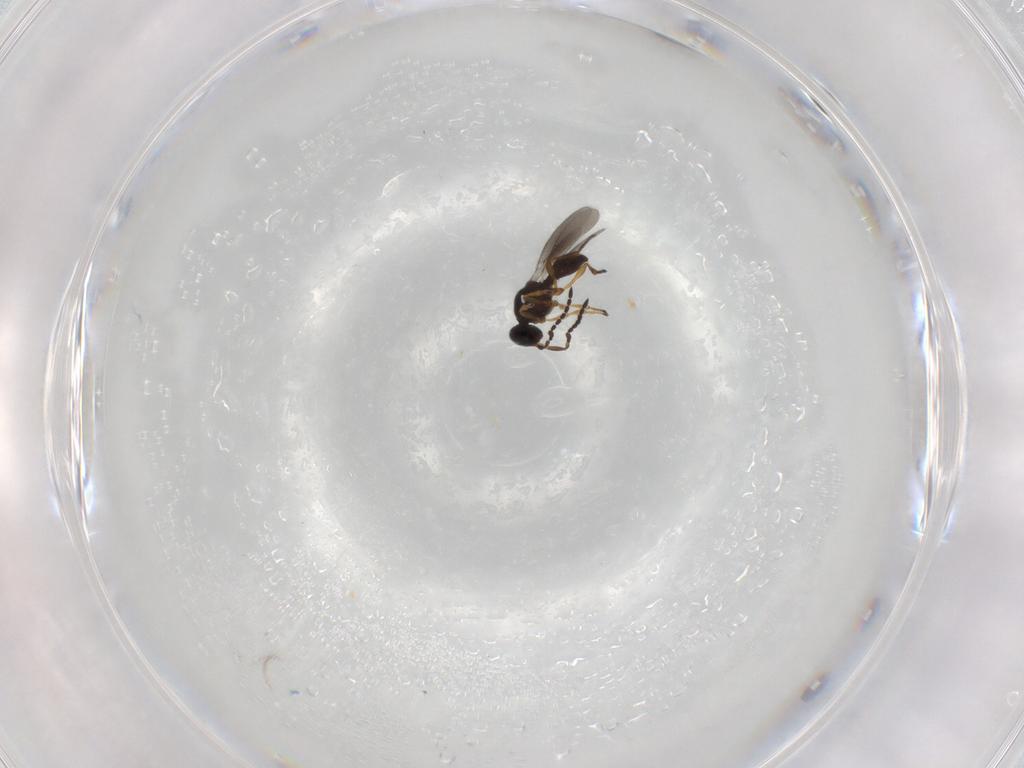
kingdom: Animalia
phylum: Arthropoda
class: Insecta
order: Hymenoptera
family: Platygastridae
